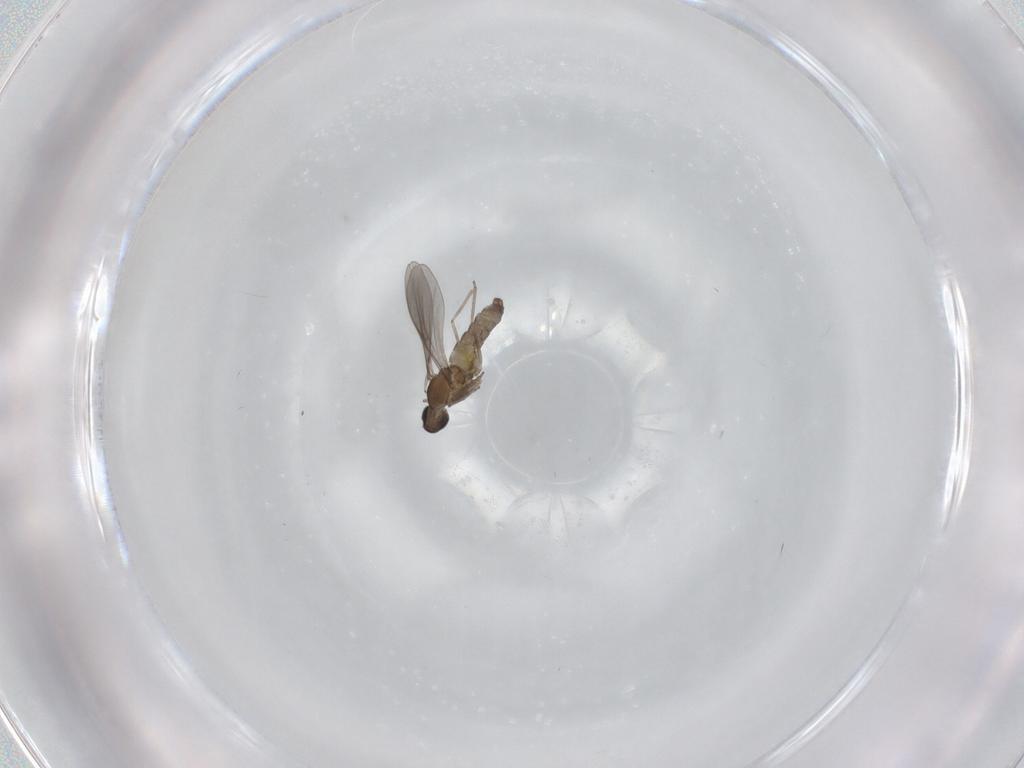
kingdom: Animalia
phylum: Arthropoda
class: Insecta
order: Diptera
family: Cecidomyiidae
